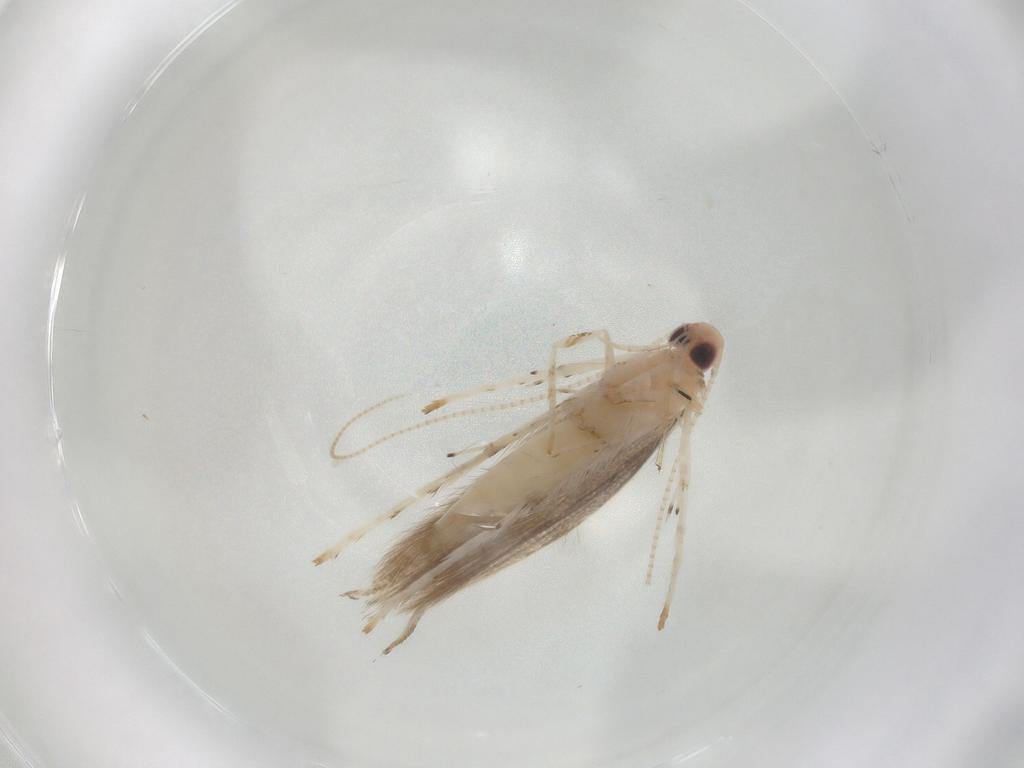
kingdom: Animalia
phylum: Arthropoda
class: Insecta
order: Lepidoptera
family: Gracillariidae
